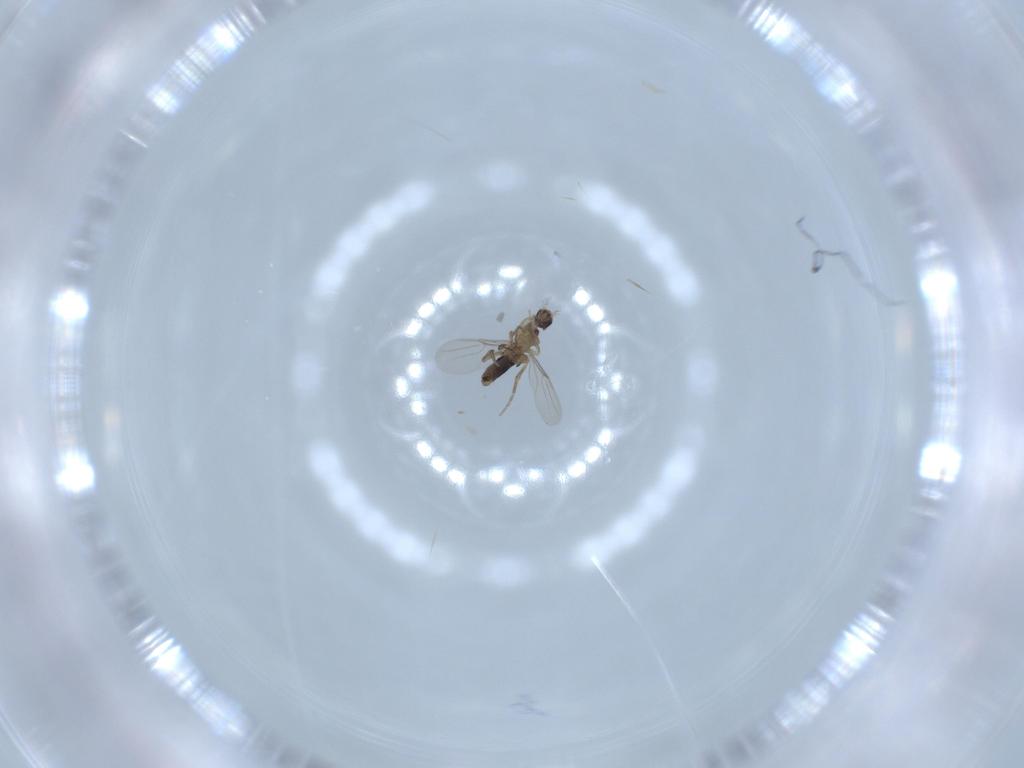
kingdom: Animalia
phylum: Arthropoda
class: Insecta
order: Diptera
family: Phoridae
